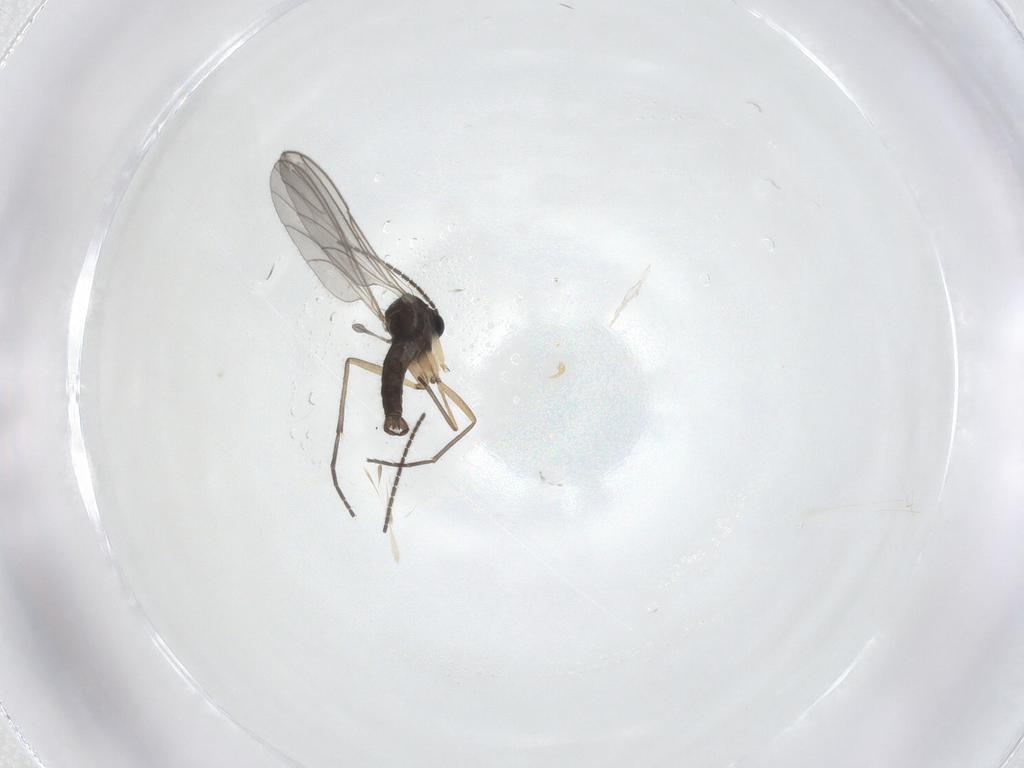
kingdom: Animalia
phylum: Arthropoda
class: Insecta
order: Diptera
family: Sciaridae
